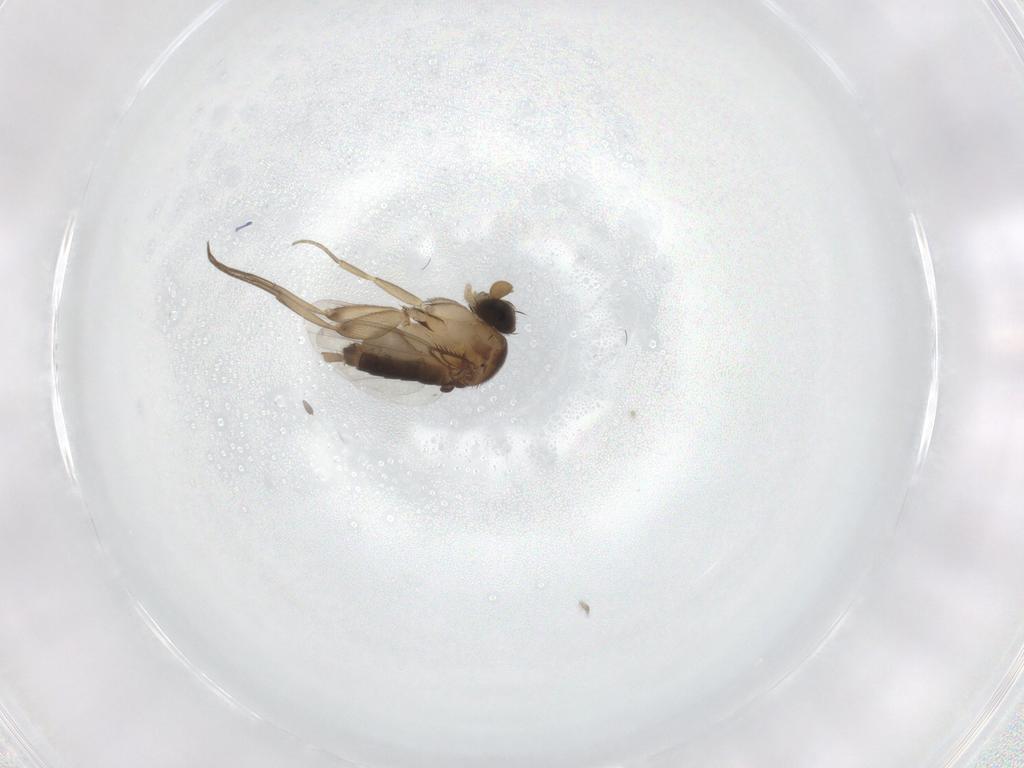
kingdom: Animalia
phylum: Arthropoda
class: Insecta
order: Diptera
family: Phoridae
